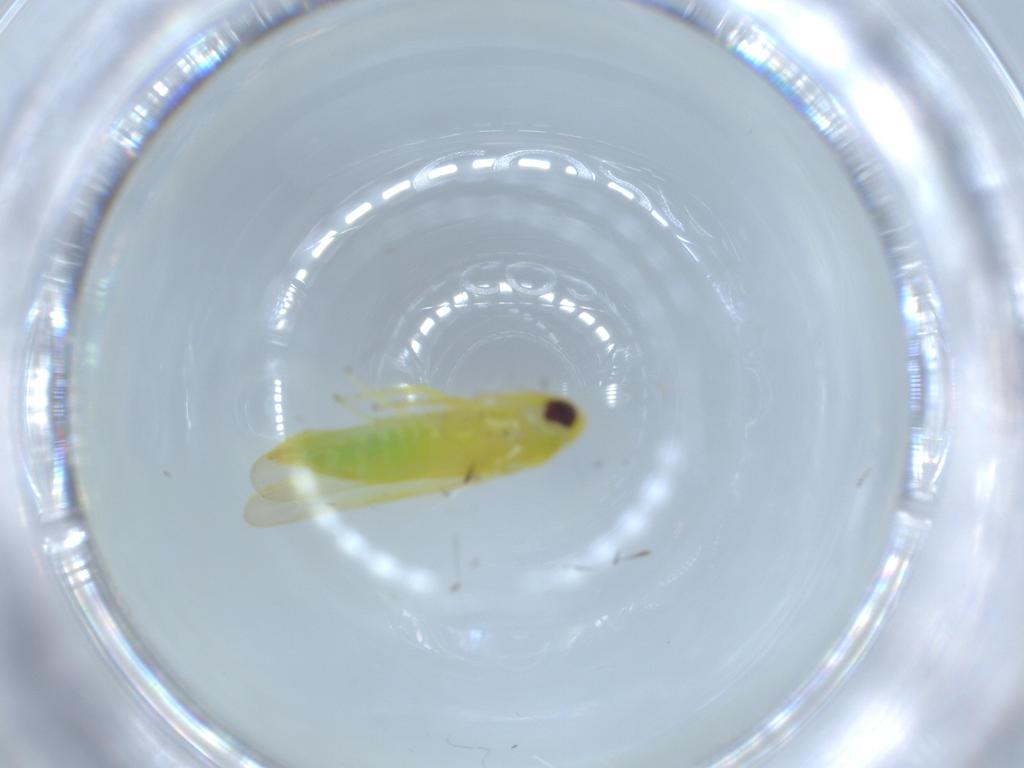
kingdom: Animalia
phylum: Arthropoda
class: Insecta
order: Hemiptera
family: Cicadellidae
